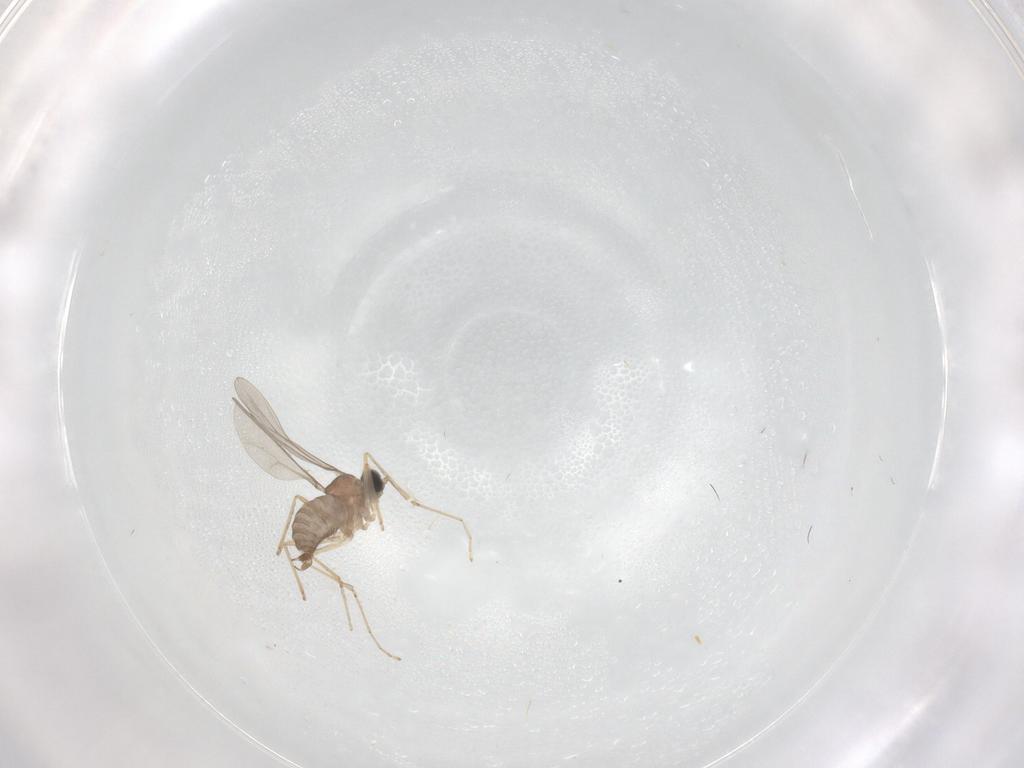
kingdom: Animalia
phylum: Arthropoda
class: Insecta
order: Diptera
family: Cecidomyiidae
